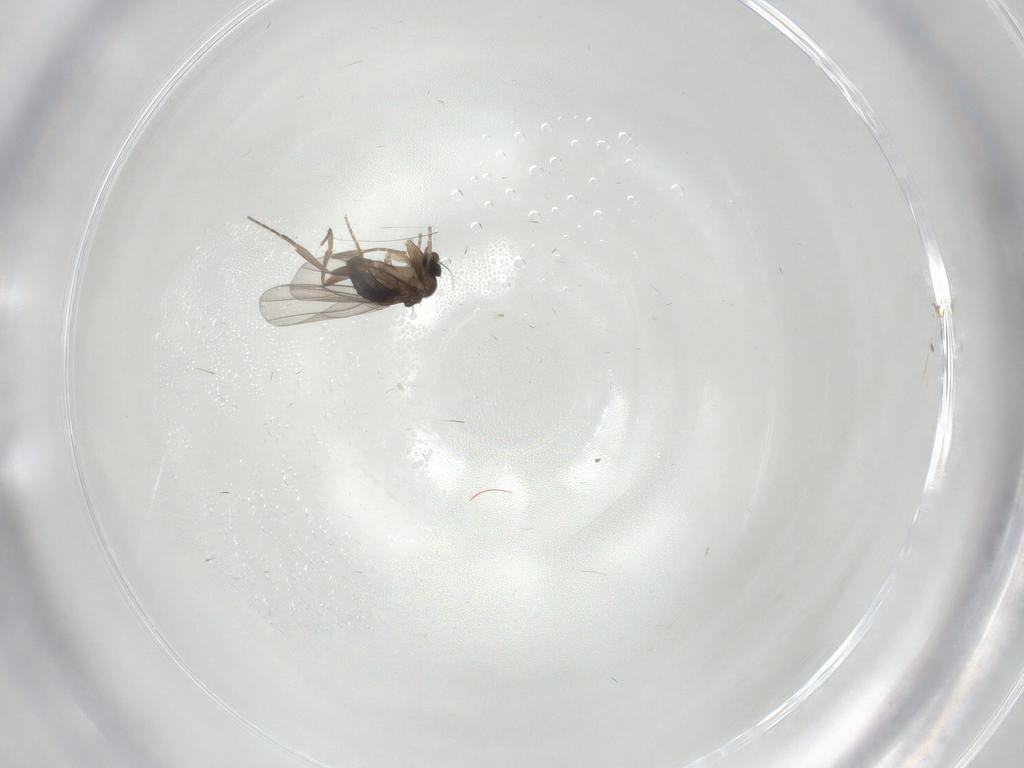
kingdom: Animalia
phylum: Arthropoda
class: Insecta
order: Diptera
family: Phoridae
